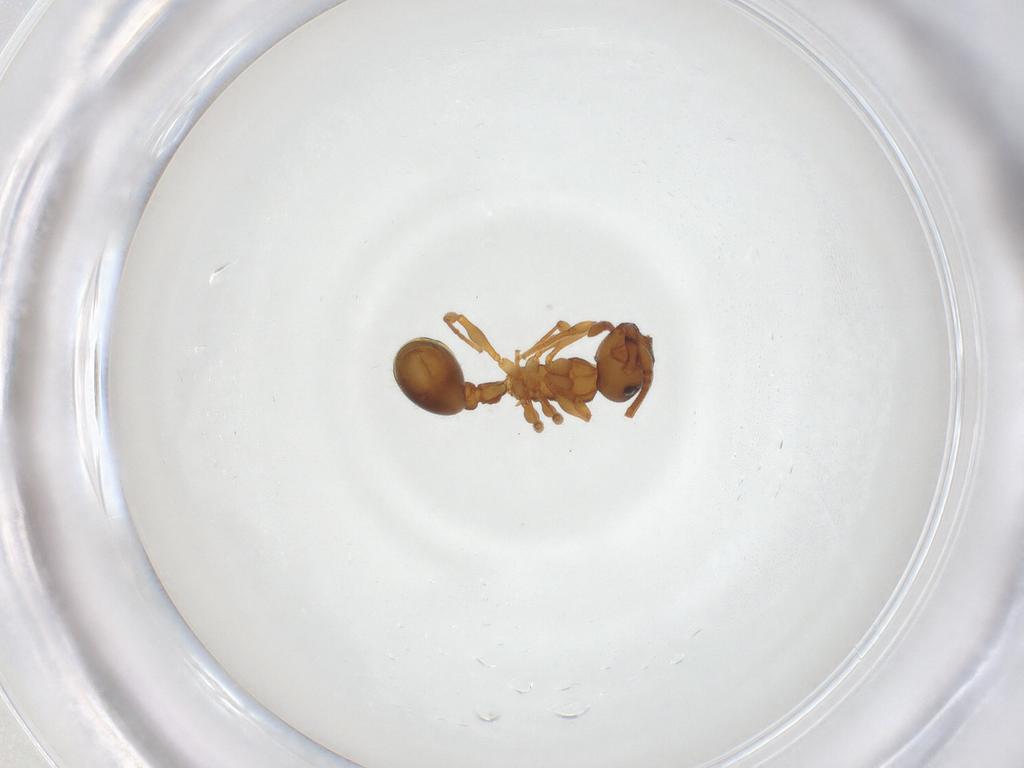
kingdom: Animalia
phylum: Arthropoda
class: Insecta
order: Hymenoptera
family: Formicidae
